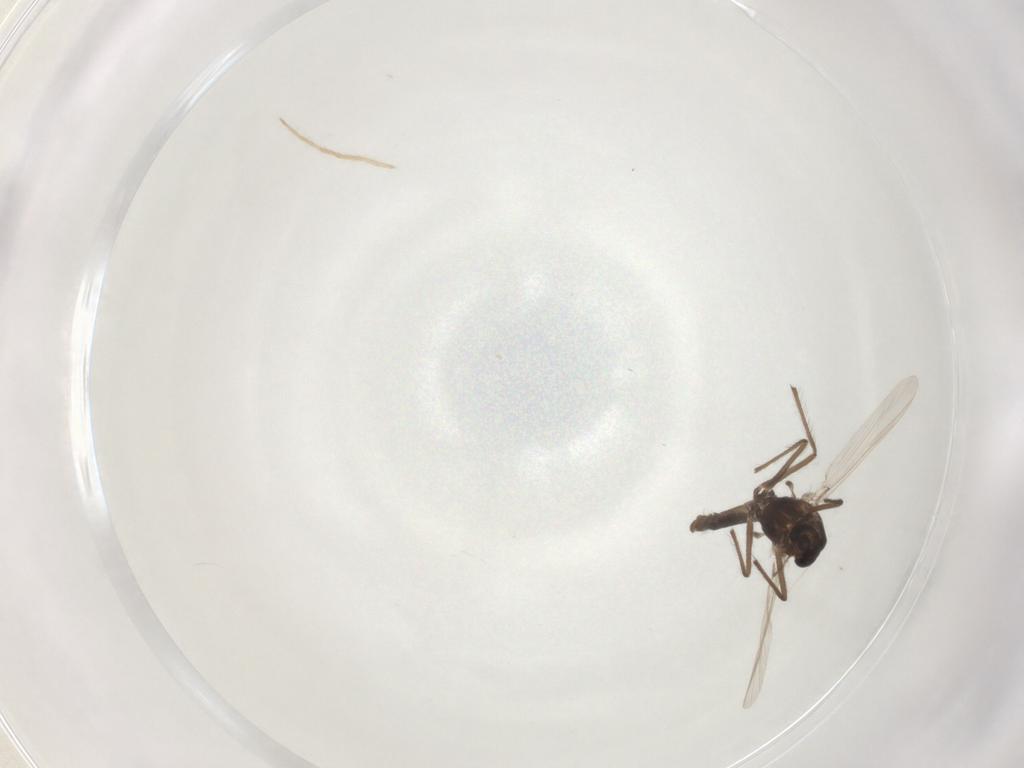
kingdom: Animalia
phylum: Arthropoda
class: Insecta
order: Diptera
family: Chironomidae
